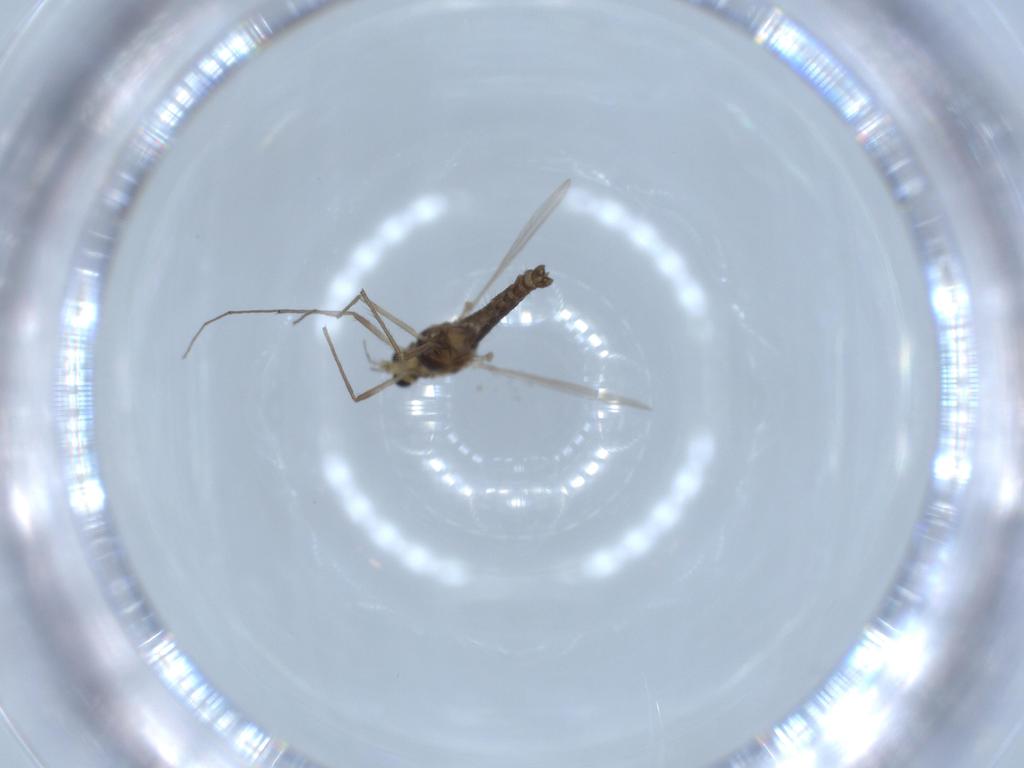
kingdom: Animalia
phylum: Arthropoda
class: Insecta
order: Diptera
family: Chironomidae
